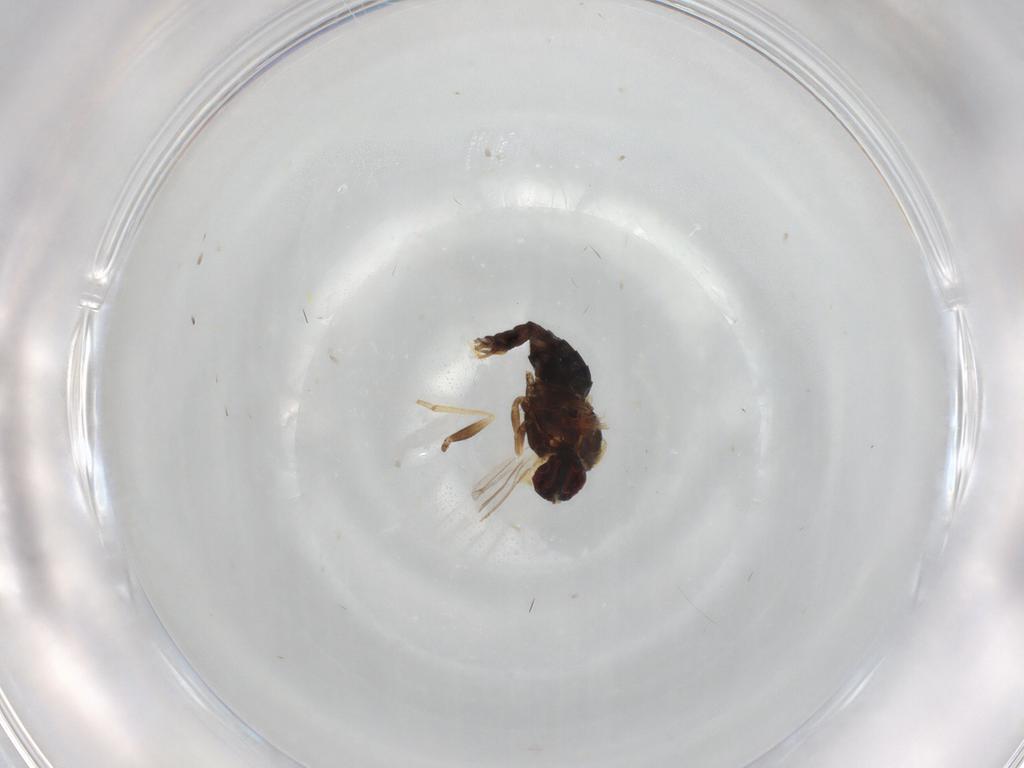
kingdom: Animalia
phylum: Arthropoda
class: Insecta
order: Diptera
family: Dolichopodidae
